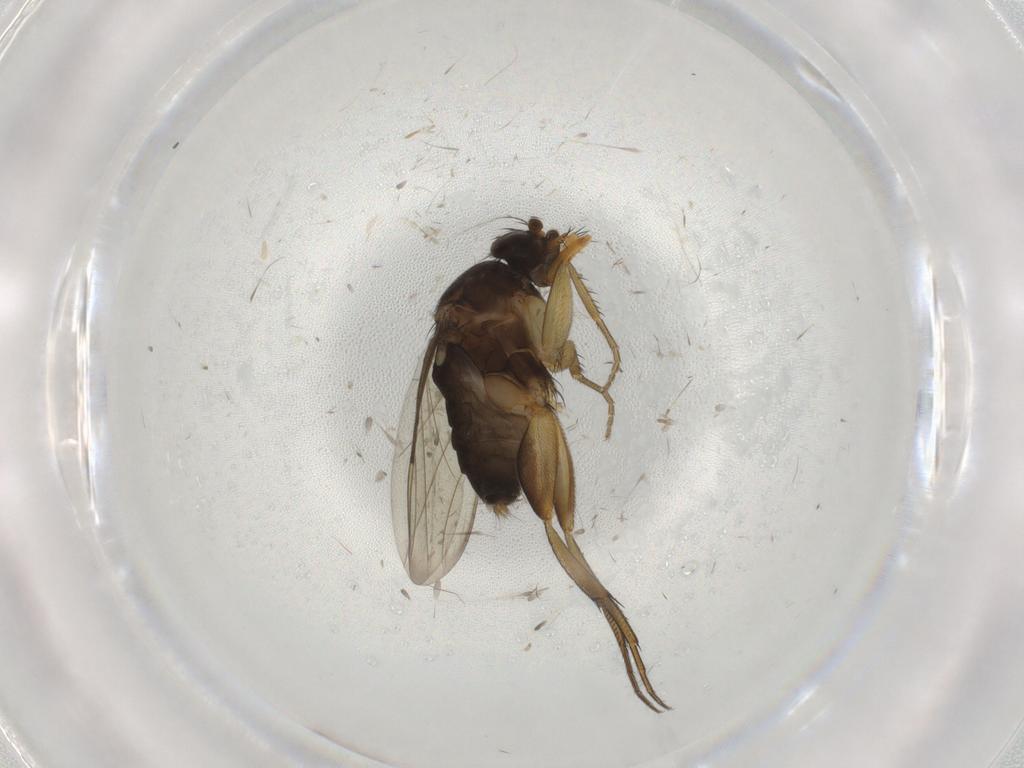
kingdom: Animalia
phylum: Arthropoda
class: Insecta
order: Diptera
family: Phoridae
